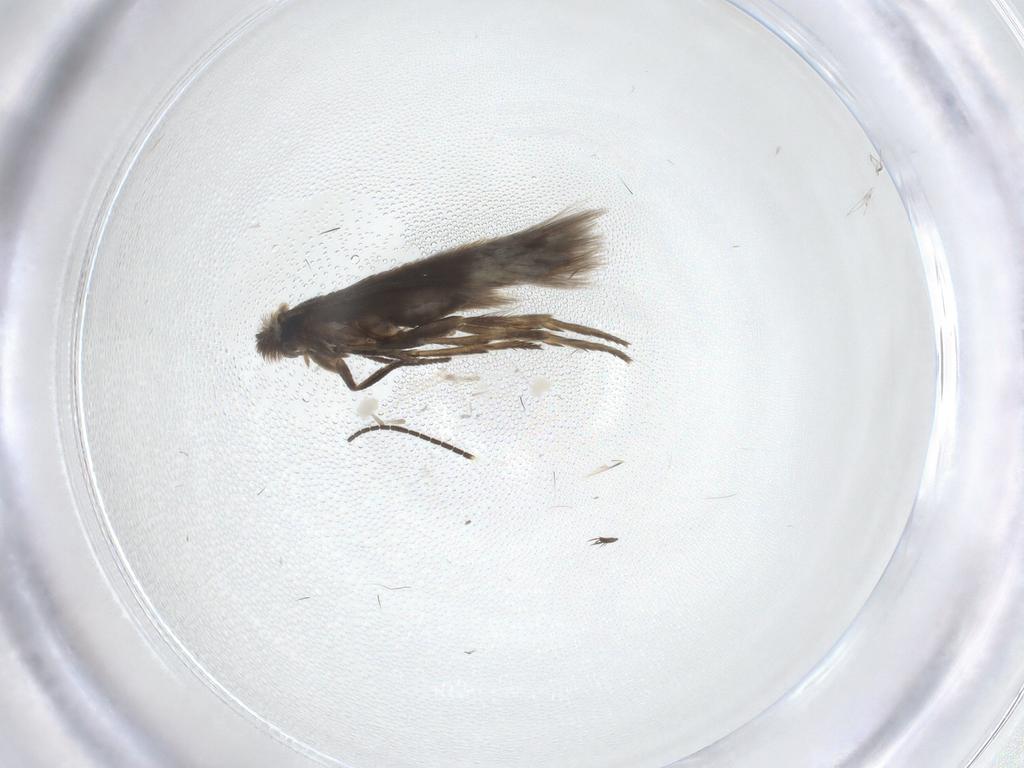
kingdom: Animalia
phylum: Arthropoda
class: Insecta
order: Lepidoptera
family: Nepticulidae
